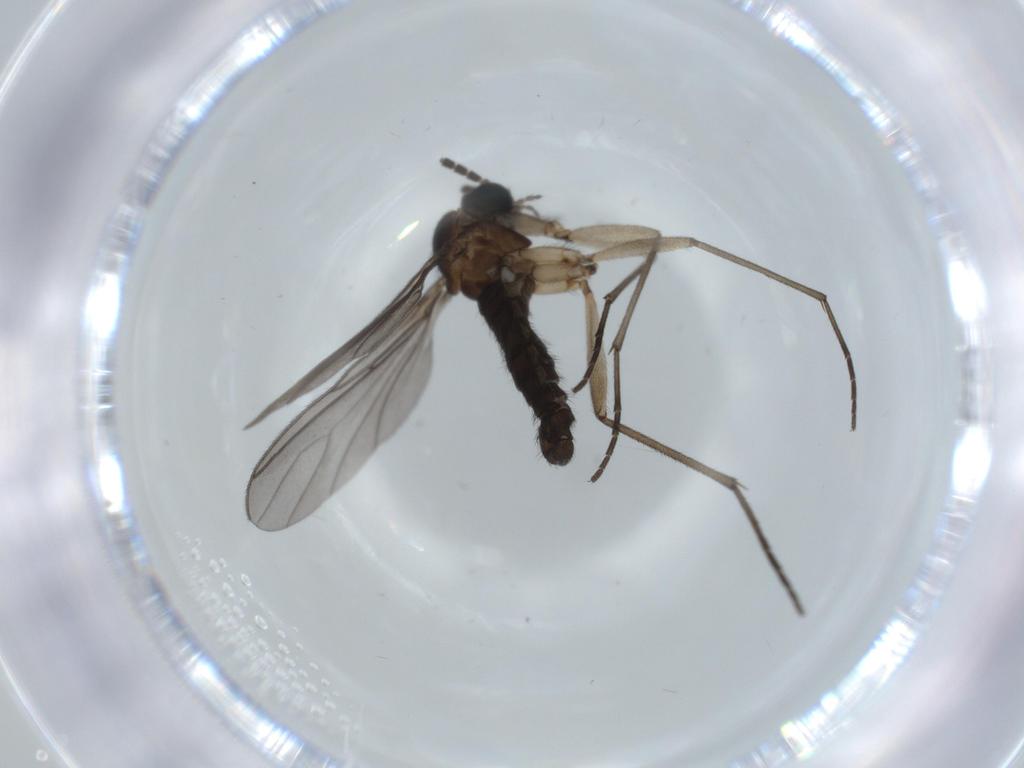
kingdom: Animalia
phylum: Arthropoda
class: Insecta
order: Diptera
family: Sciaridae
